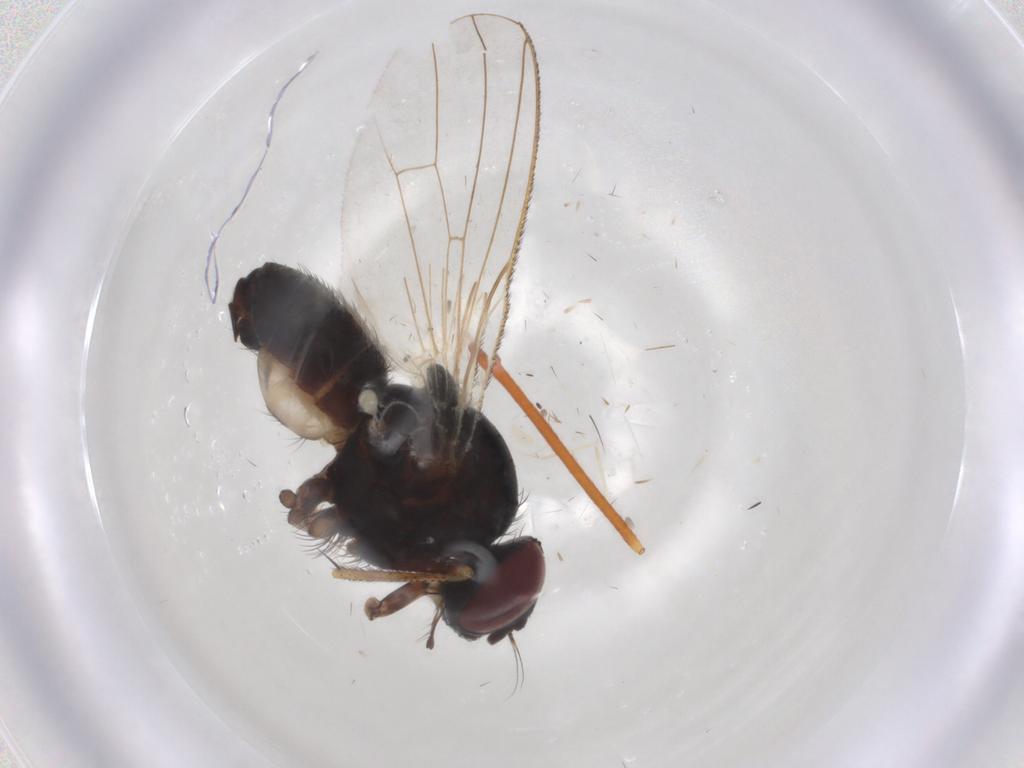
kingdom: Animalia
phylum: Arthropoda
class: Insecta
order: Diptera
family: Muscidae
